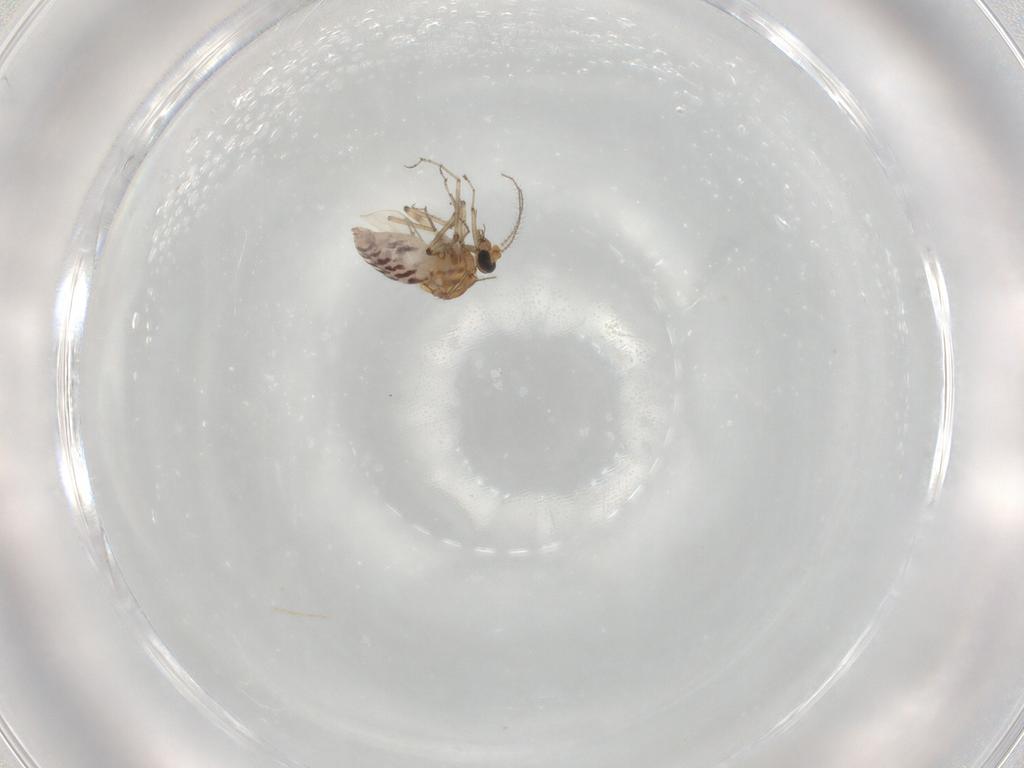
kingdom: Animalia
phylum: Arthropoda
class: Insecta
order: Diptera
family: Ceratopogonidae
